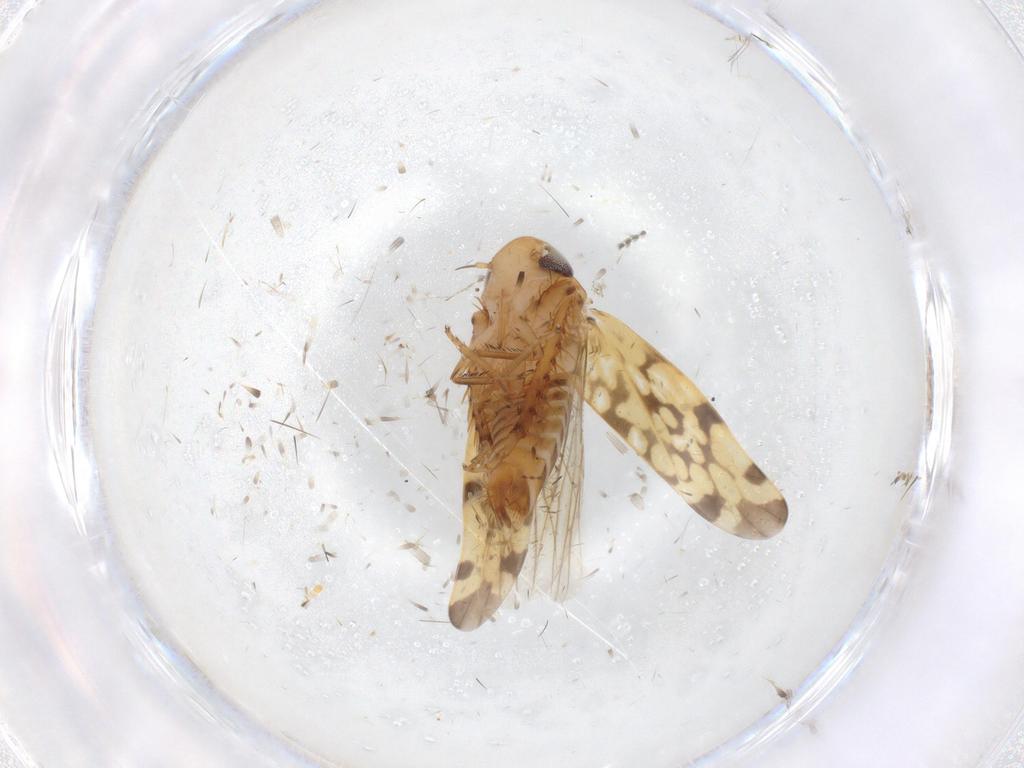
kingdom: Animalia
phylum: Arthropoda
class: Insecta
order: Hemiptera
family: Cicadellidae
